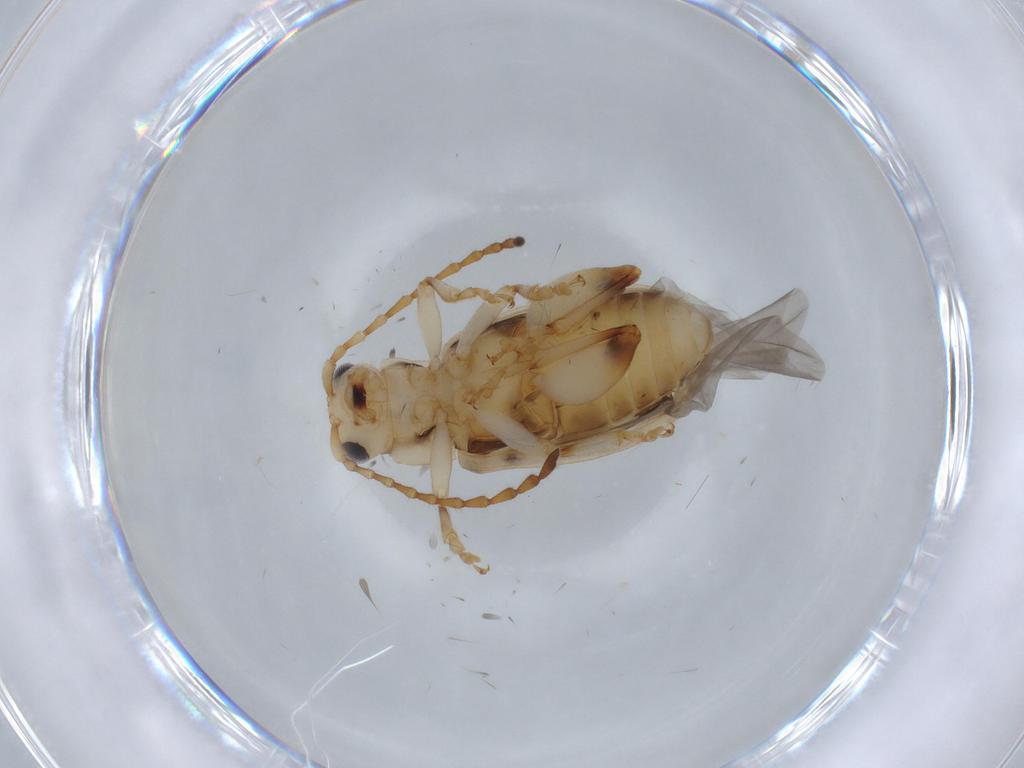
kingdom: Animalia
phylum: Arthropoda
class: Insecta
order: Coleoptera
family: Chrysomelidae
